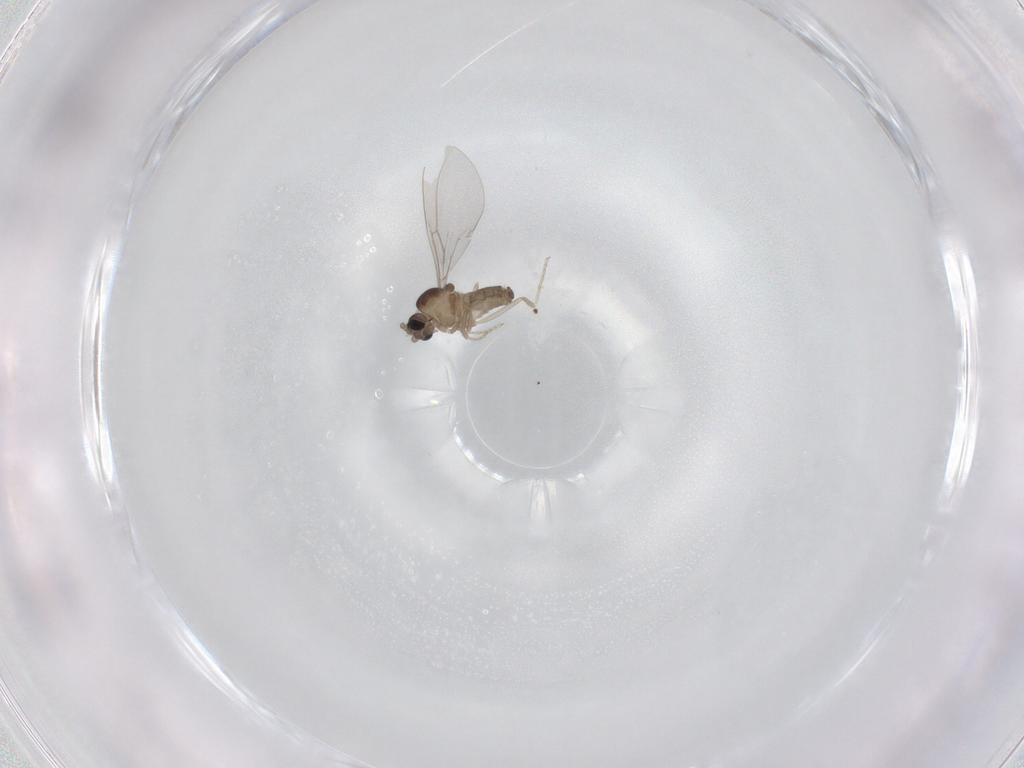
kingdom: Animalia
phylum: Arthropoda
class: Insecta
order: Diptera
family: Cecidomyiidae
